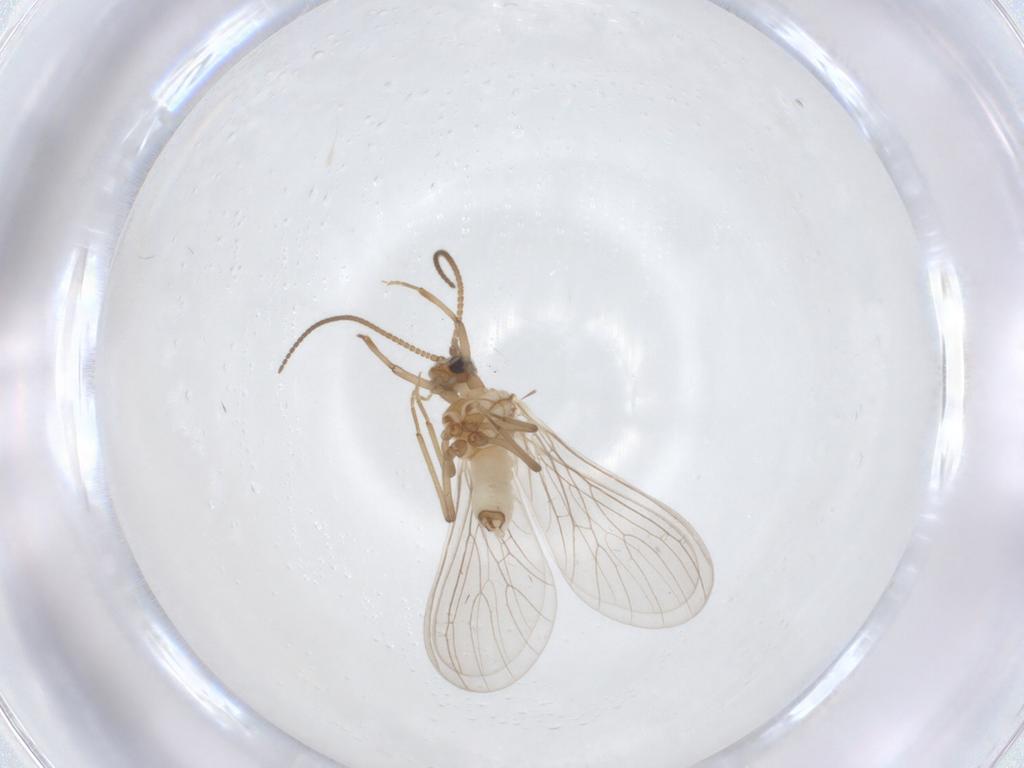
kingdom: Animalia
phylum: Arthropoda
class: Insecta
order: Neuroptera
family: Coniopterygidae
